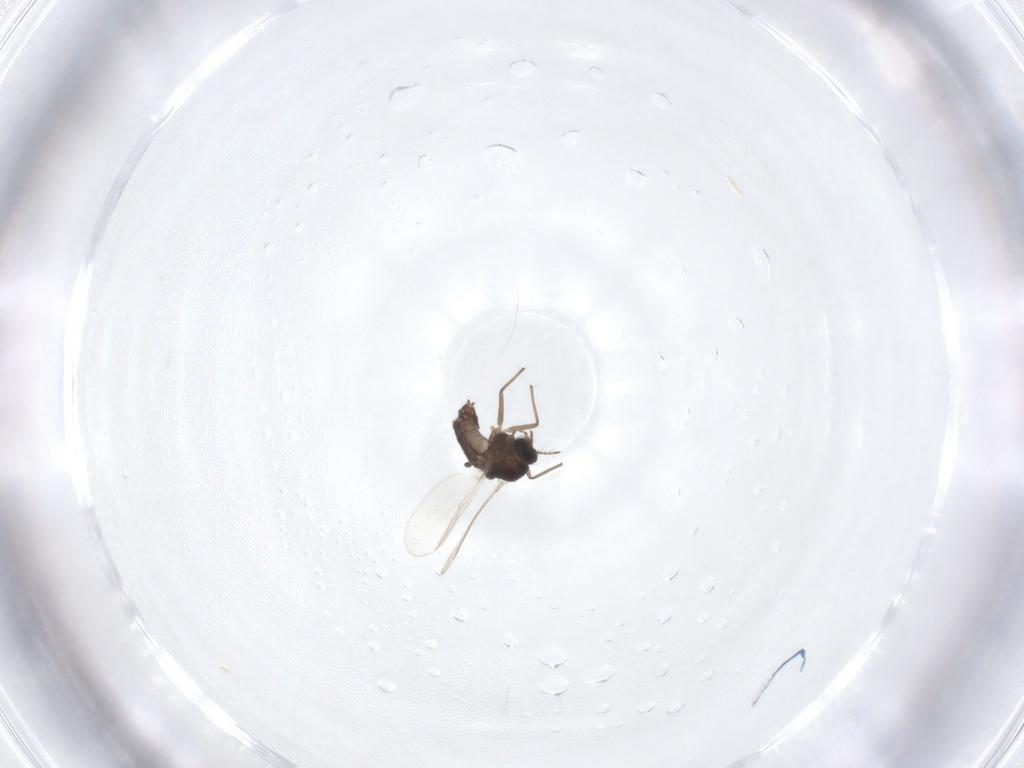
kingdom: Animalia
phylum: Arthropoda
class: Insecta
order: Diptera
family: Chironomidae
